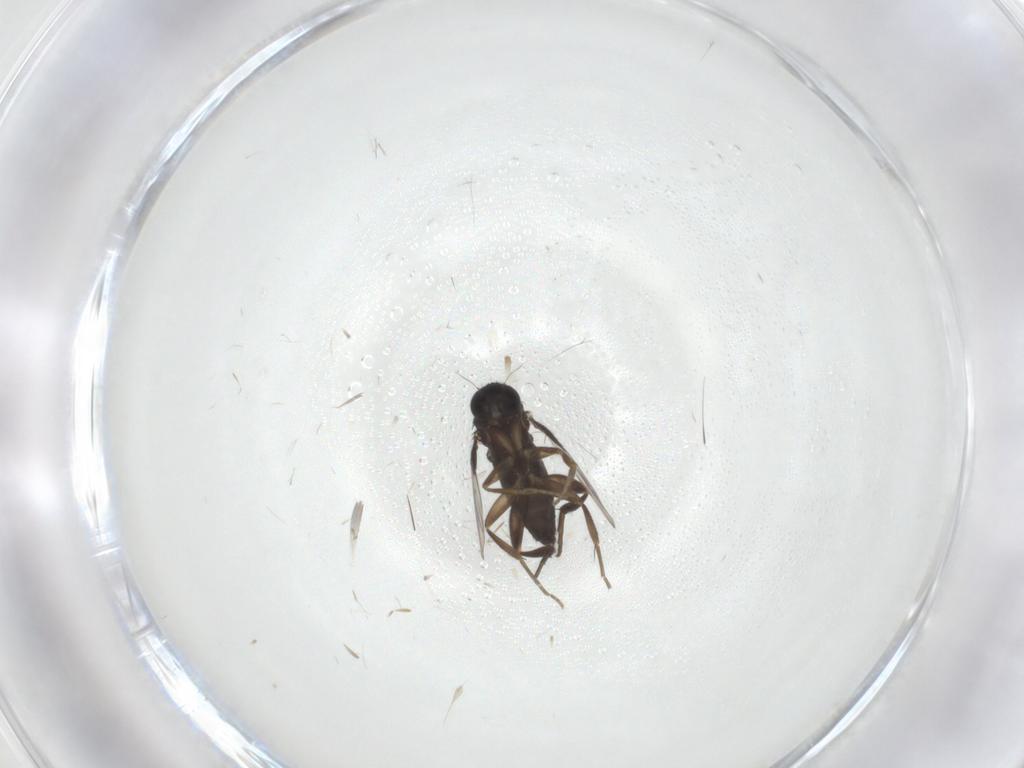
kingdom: Animalia
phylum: Arthropoda
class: Insecta
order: Diptera
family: Phoridae
